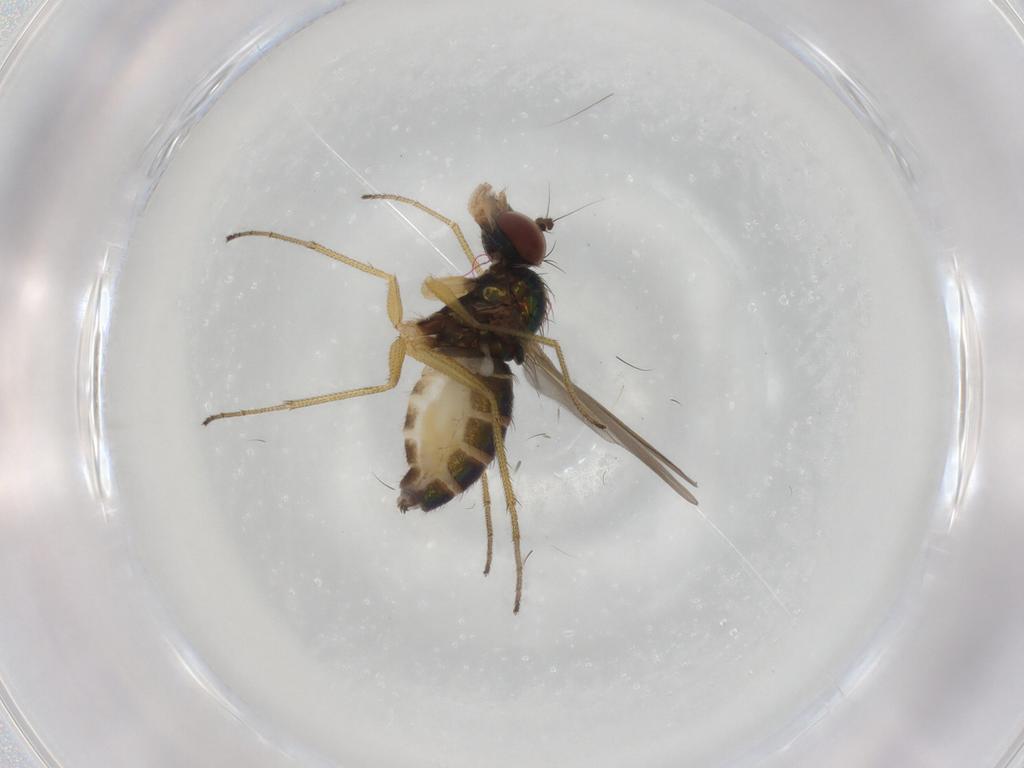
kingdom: Animalia
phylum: Arthropoda
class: Insecta
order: Diptera
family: Dolichopodidae
